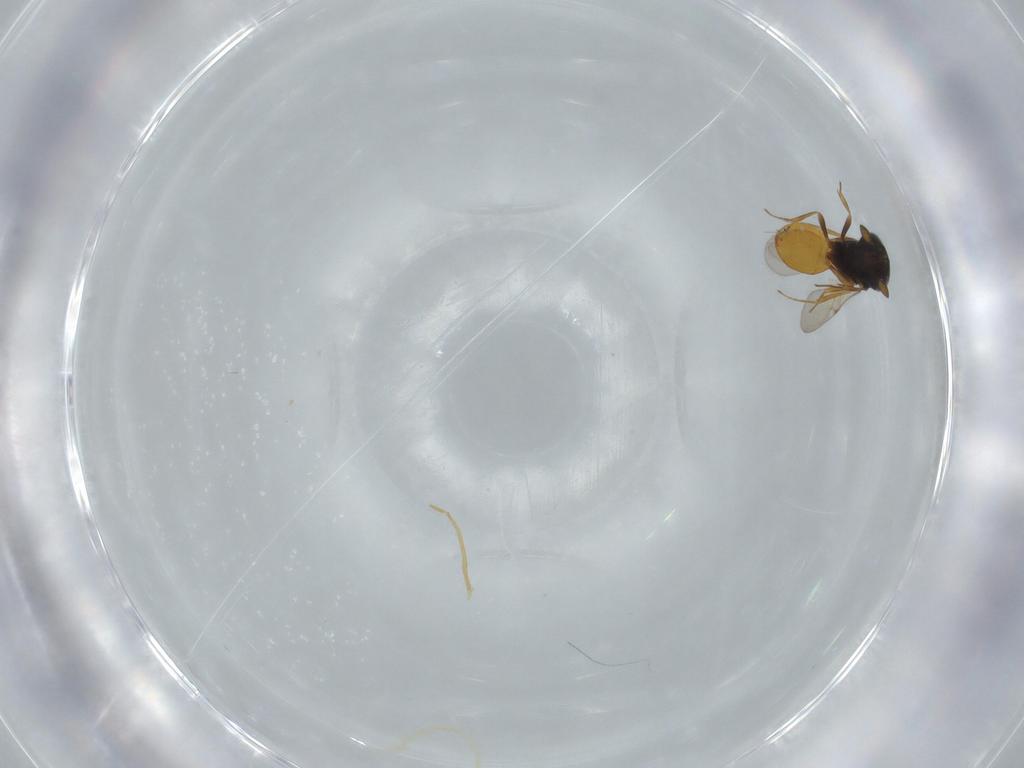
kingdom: Animalia
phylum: Arthropoda
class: Insecta
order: Hymenoptera
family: Scelionidae
